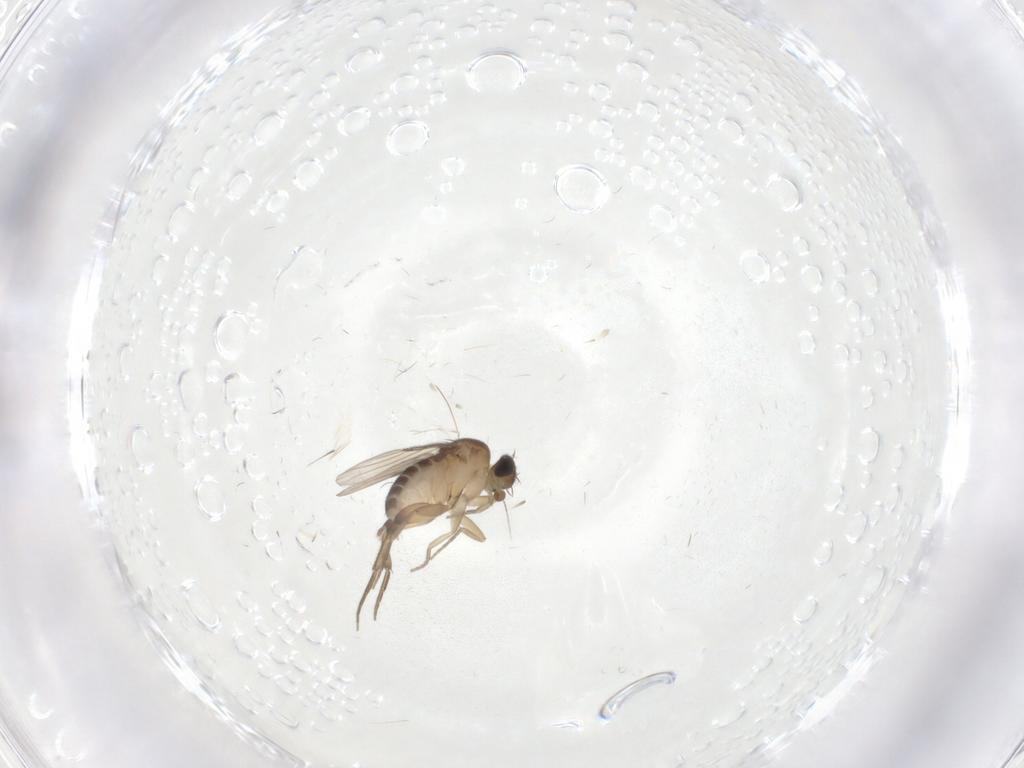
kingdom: Animalia
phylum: Arthropoda
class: Insecta
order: Diptera
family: Phoridae
